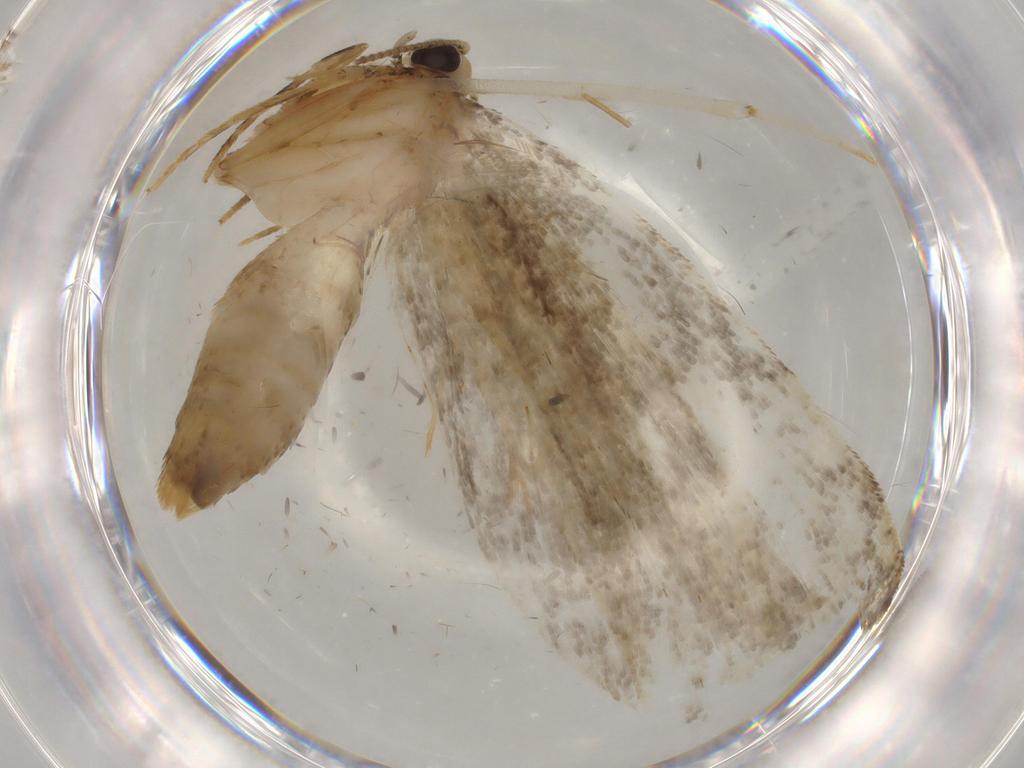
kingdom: Animalia
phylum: Arthropoda
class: Insecta
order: Lepidoptera
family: Tineidae
